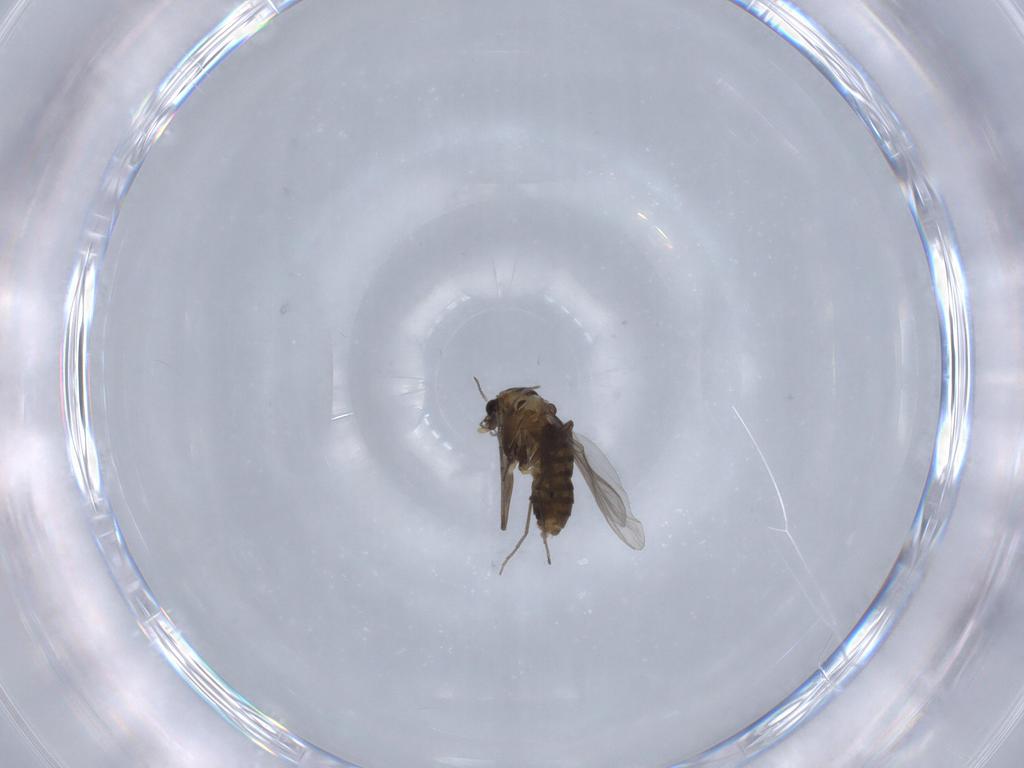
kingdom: Animalia
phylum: Arthropoda
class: Insecta
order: Diptera
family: Chironomidae
